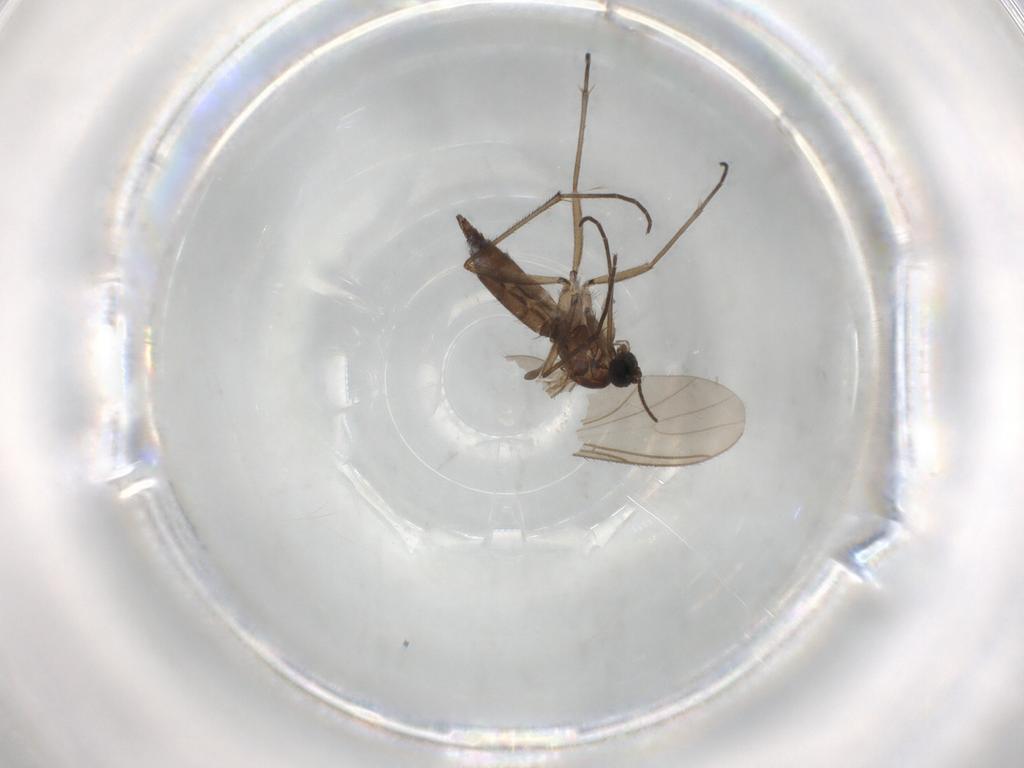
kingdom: Animalia
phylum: Arthropoda
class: Insecta
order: Diptera
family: Sciaridae
